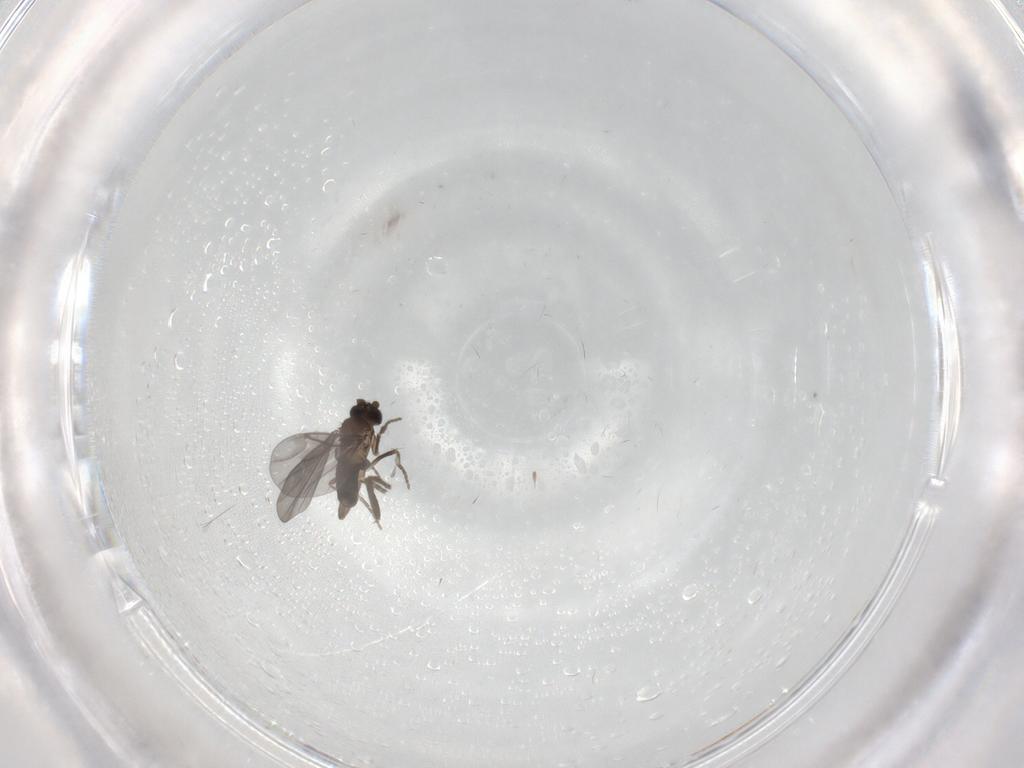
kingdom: Animalia
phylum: Arthropoda
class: Insecta
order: Diptera
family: Phoridae
